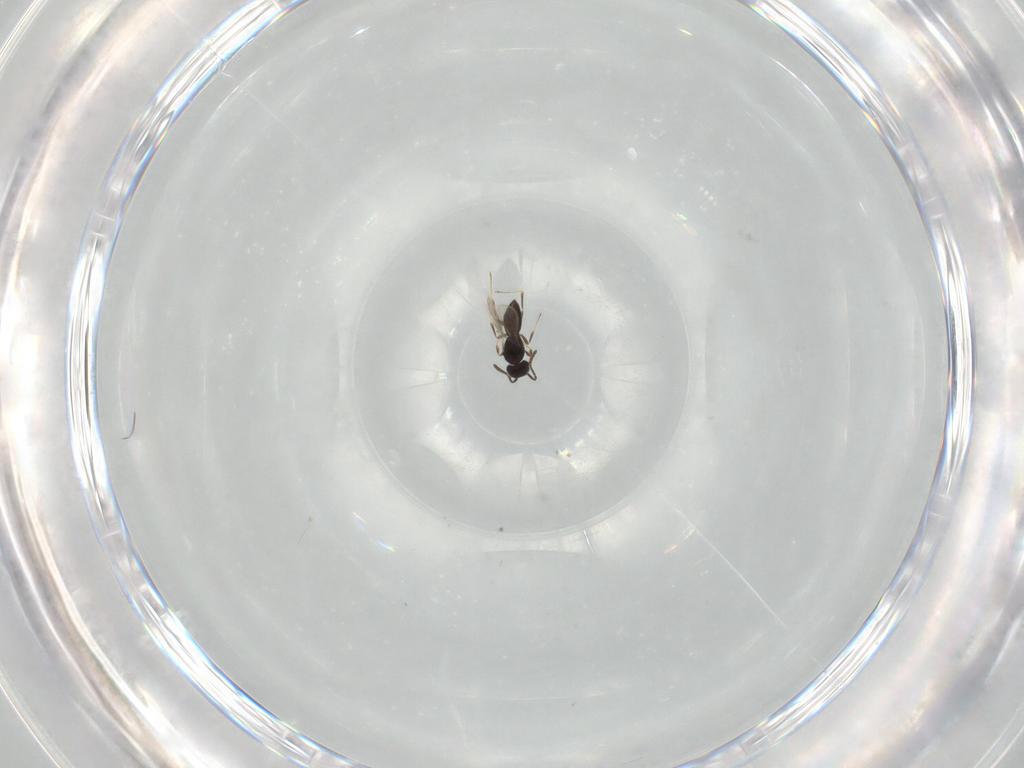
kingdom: Animalia
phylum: Arthropoda
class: Insecta
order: Hymenoptera
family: Scelionidae
